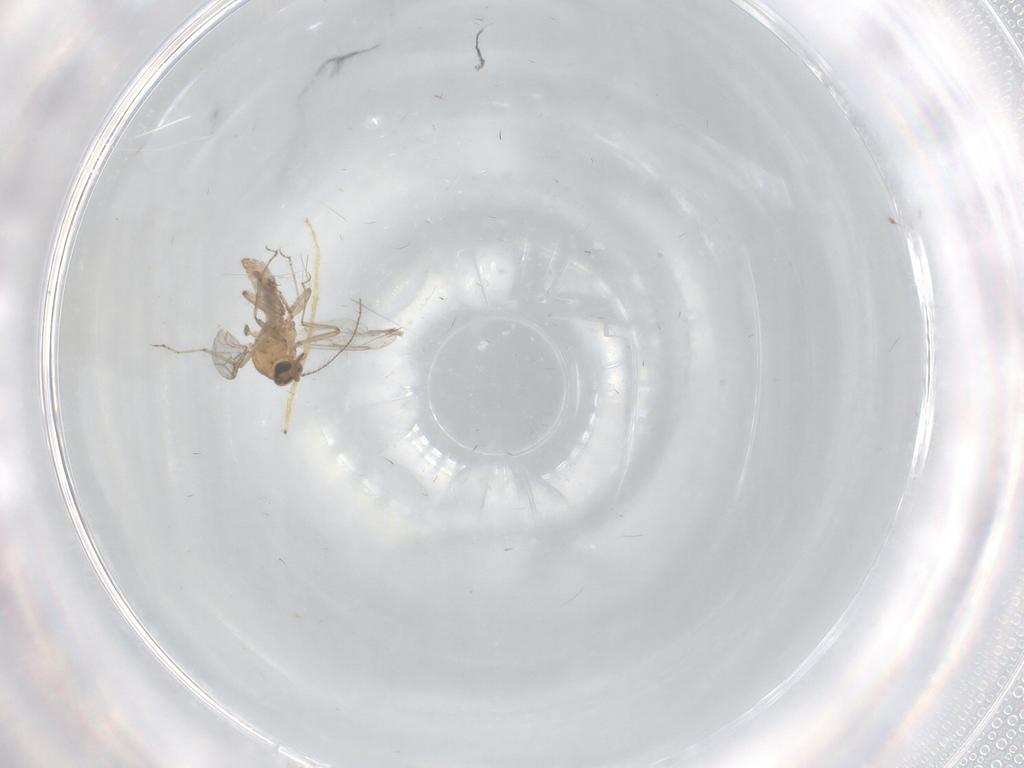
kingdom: Animalia
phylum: Arthropoda
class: Insecta
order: Diptera
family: Chironomidae
